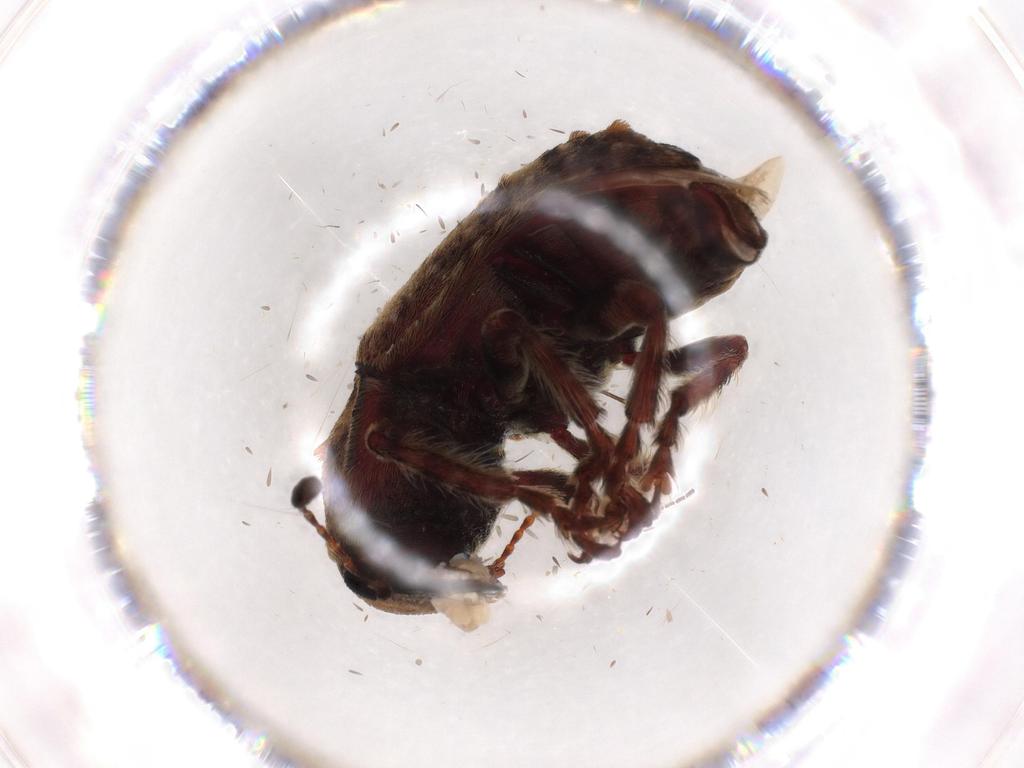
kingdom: Animalia
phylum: Arthropoda
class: Insecta
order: Coleoptera
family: Anthribidae
